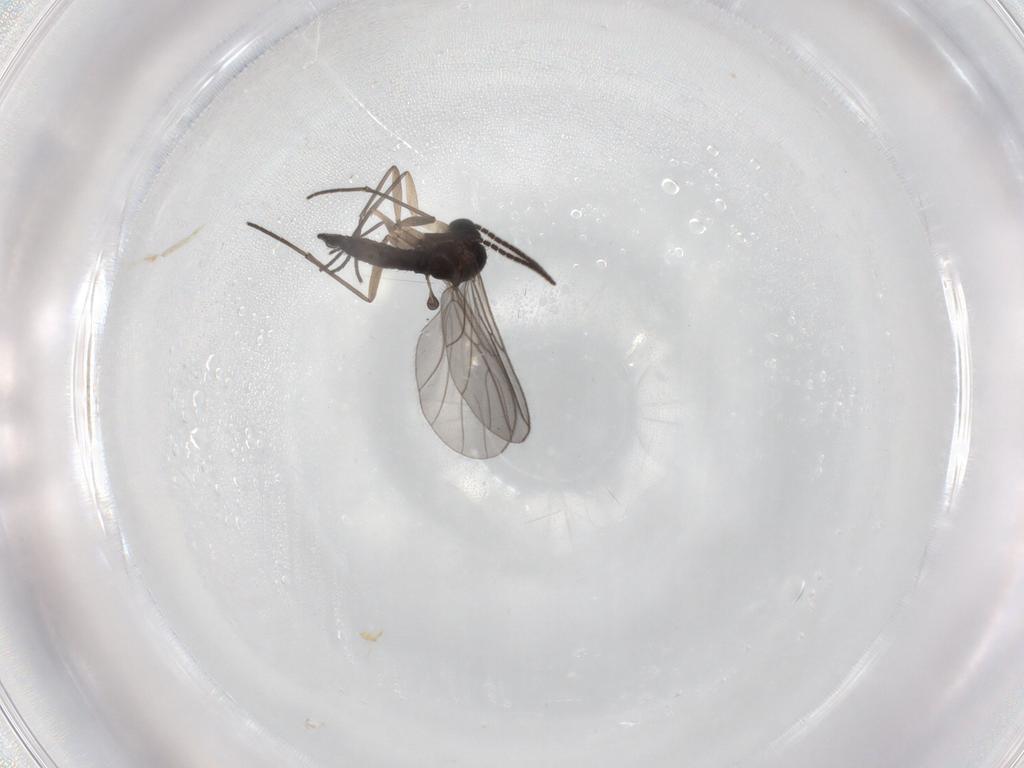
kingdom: Animalia
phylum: Arthropoda
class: Insecta
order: Diptera
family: Sciaridae
